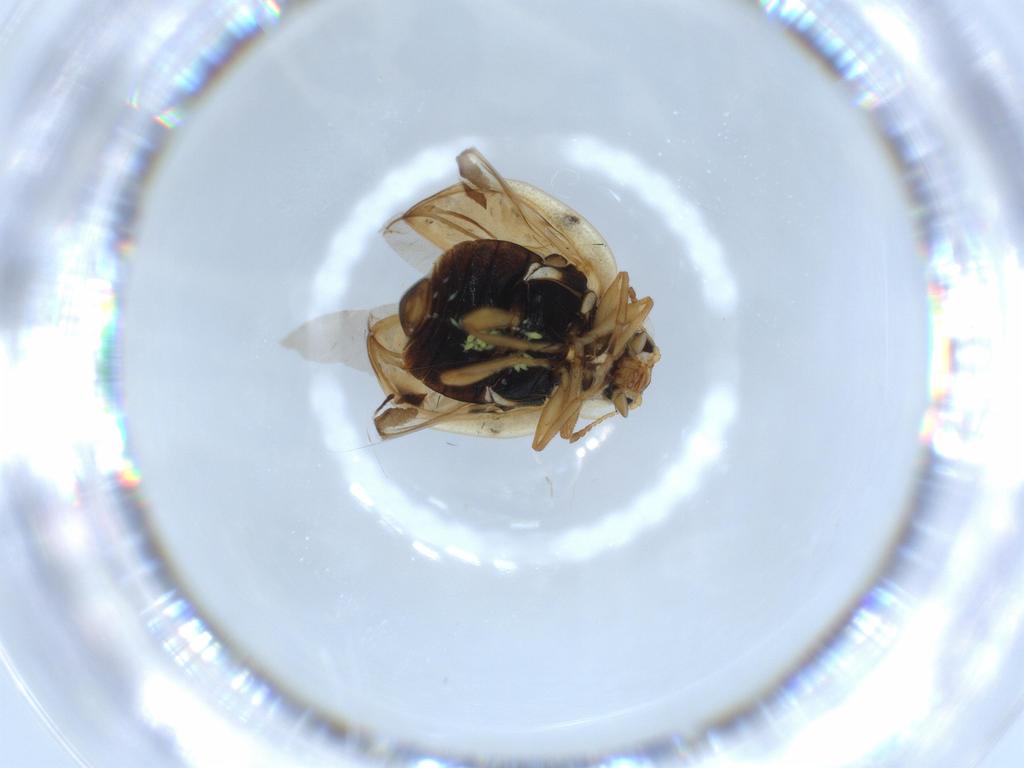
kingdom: Animalia
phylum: Arthropoda
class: Insecta
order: Coleoptera
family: Coccinellidae
